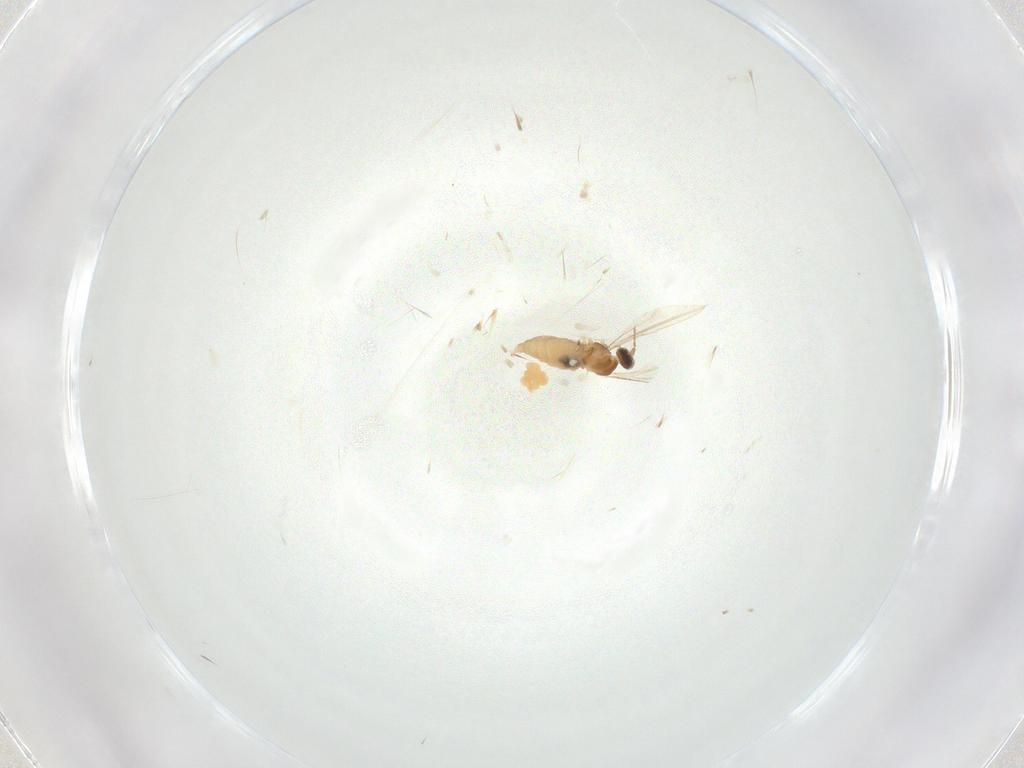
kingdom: Animalia
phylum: Arthropoda
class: Insecta
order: Diptera
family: Cecidomyiidae
